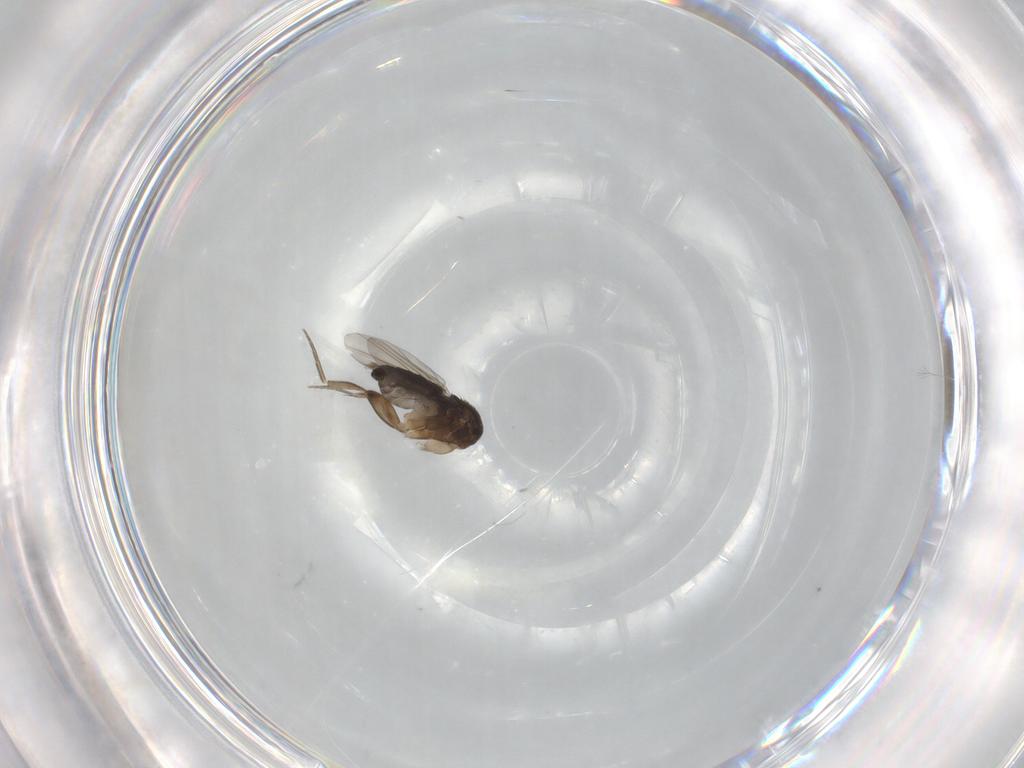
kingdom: Animalia
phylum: Arthropoda
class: Insecta
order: Diptera
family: Phoridae
